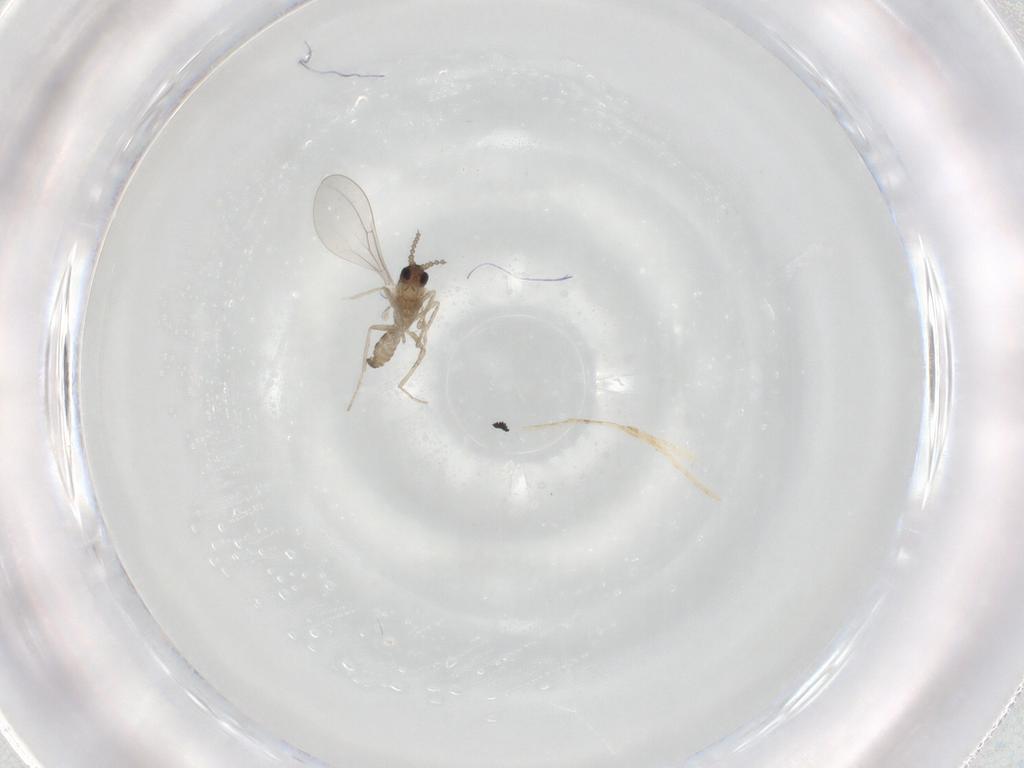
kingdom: Animalia
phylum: Arthropoda
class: Insecta
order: Diptera
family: Cecidomyiidae
